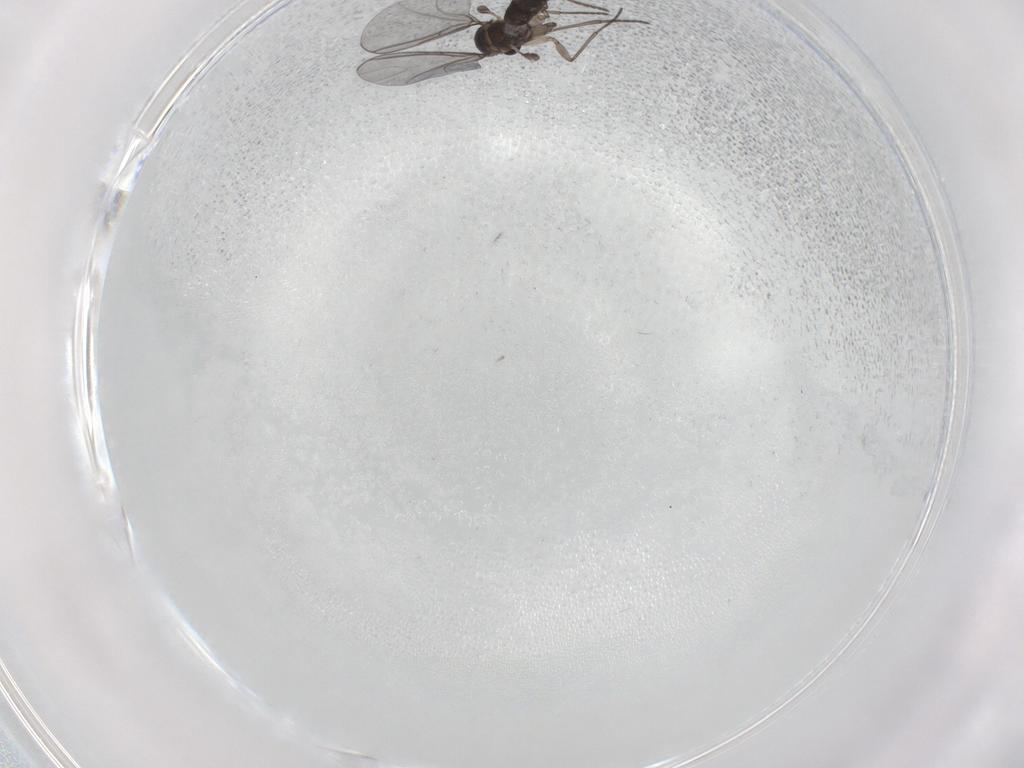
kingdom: Animalia
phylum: Arthropoda
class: Insecta
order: Diptera
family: Sciaridae
